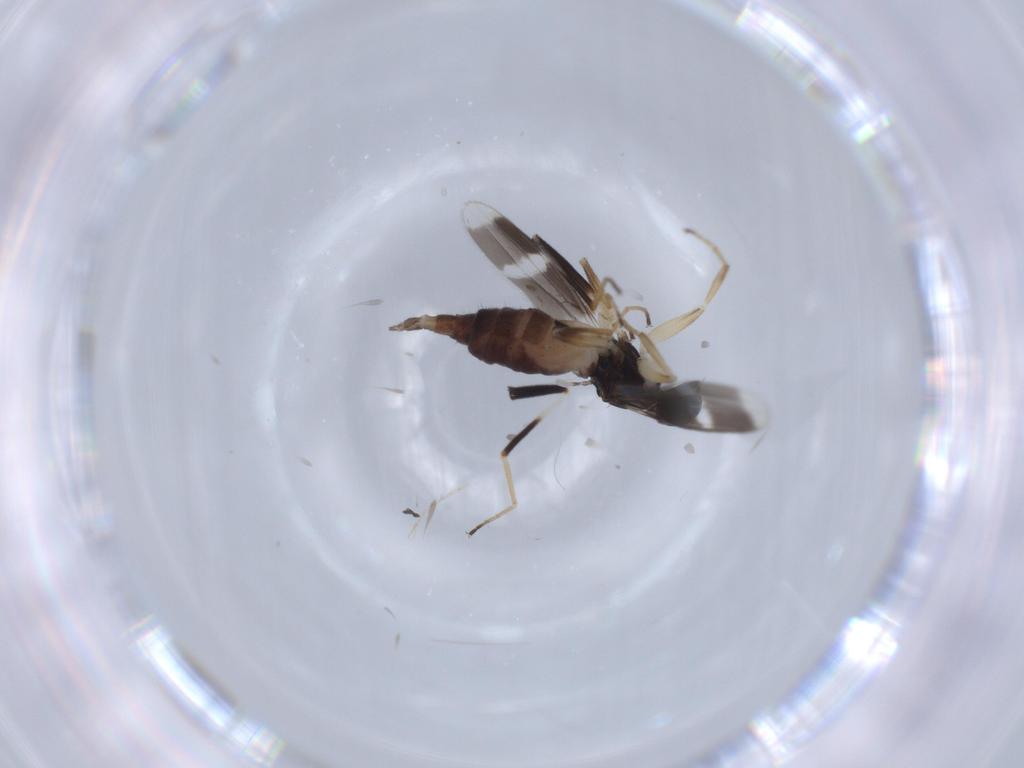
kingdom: Animalia
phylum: Arthropoda
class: Insecta
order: Diptera
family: Hybotidae
